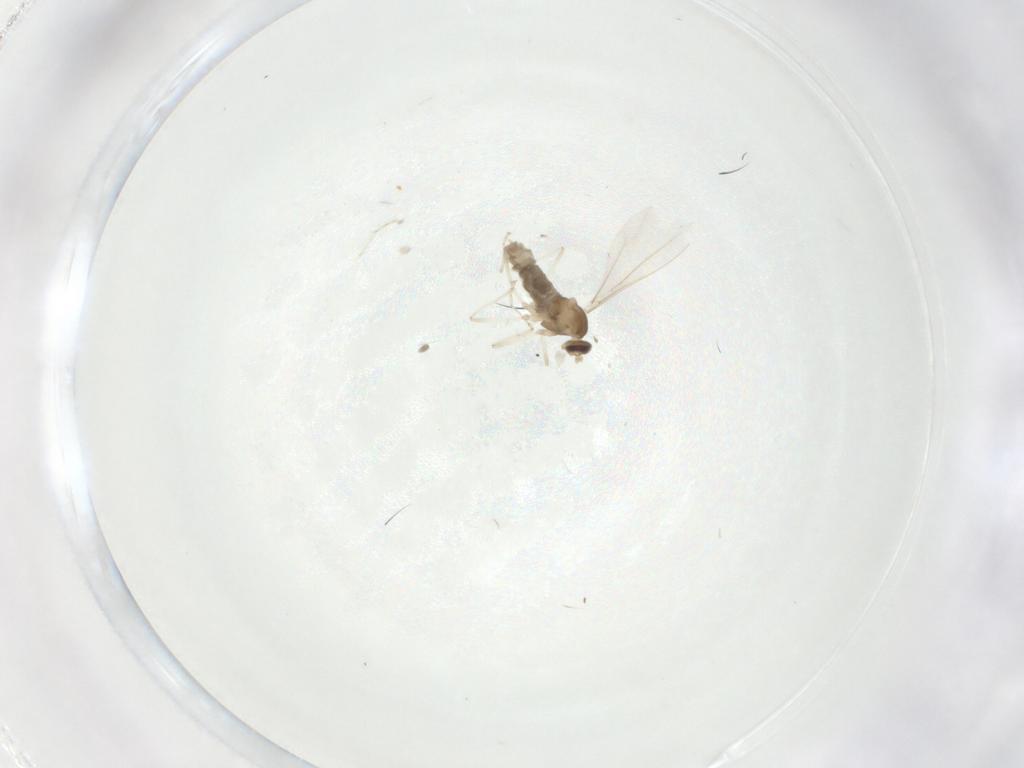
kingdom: Animalia
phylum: Arthropoda
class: Insecta
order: Diptera
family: Cecidomyiidae
